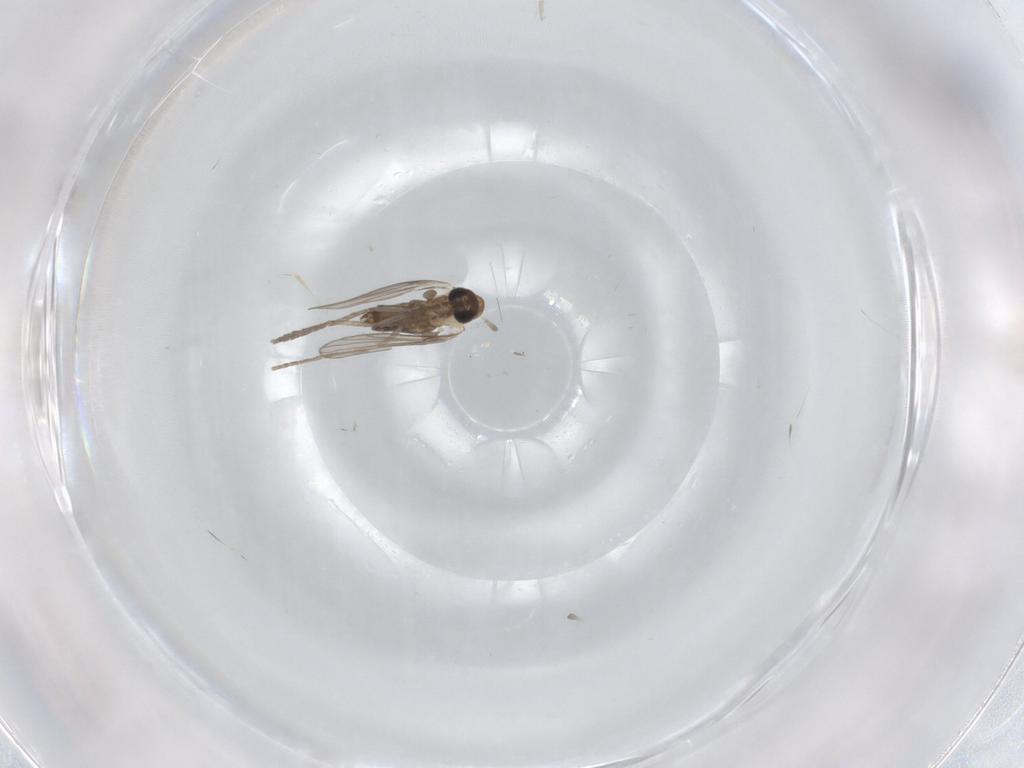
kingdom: Animalia
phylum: Arthropoda
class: Insecta
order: Diptera
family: Psychodidae
